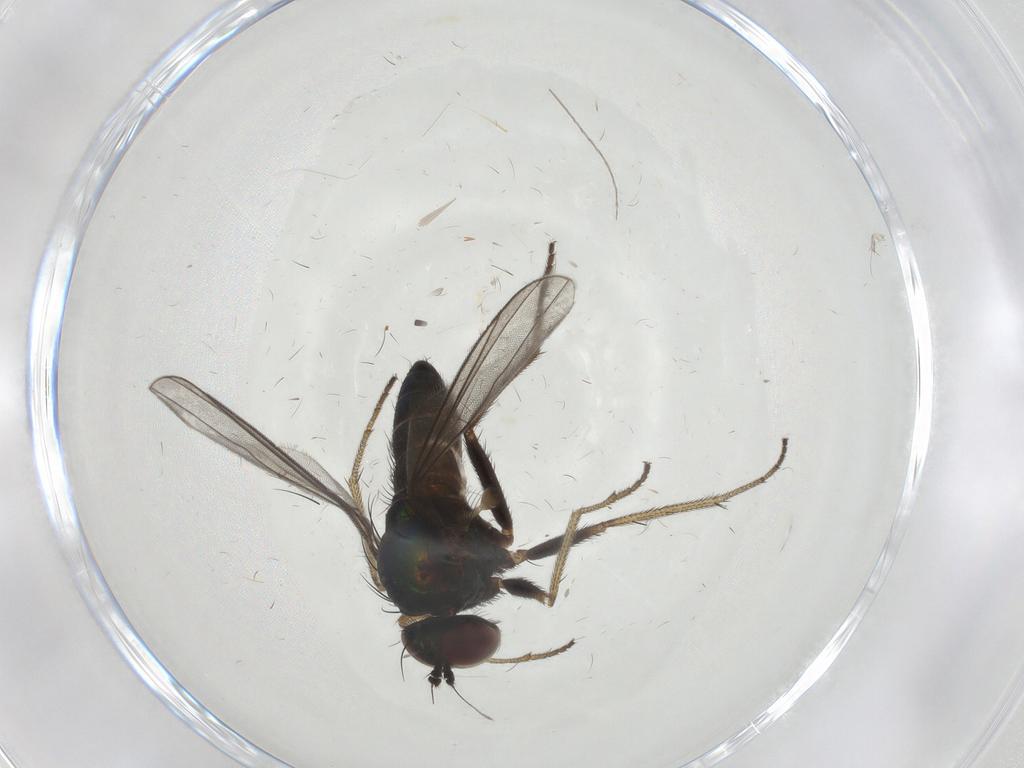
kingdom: Animalia
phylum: Arthropoda
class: Insecta
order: Diptera
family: Dolichopodidae
